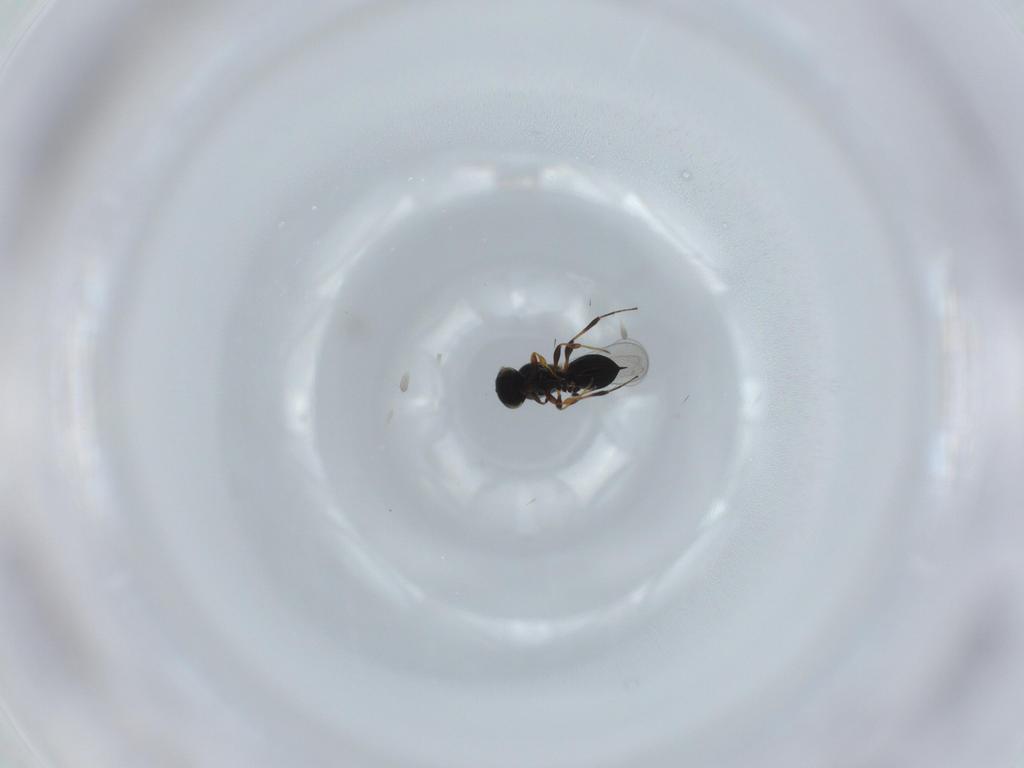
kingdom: Animalia
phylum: Arthropoda
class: Insecta
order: Hymenoptera
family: Platygastridae
